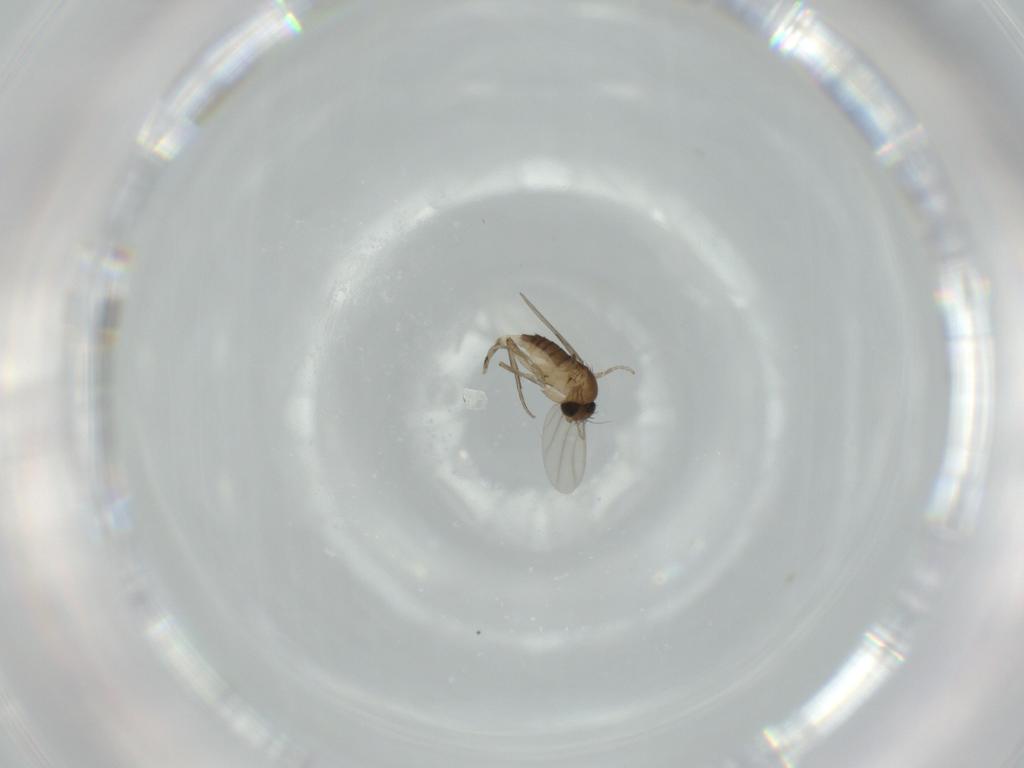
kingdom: Animalia
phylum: Arthropoda
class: Insecta
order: Diptera
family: Phoridae
